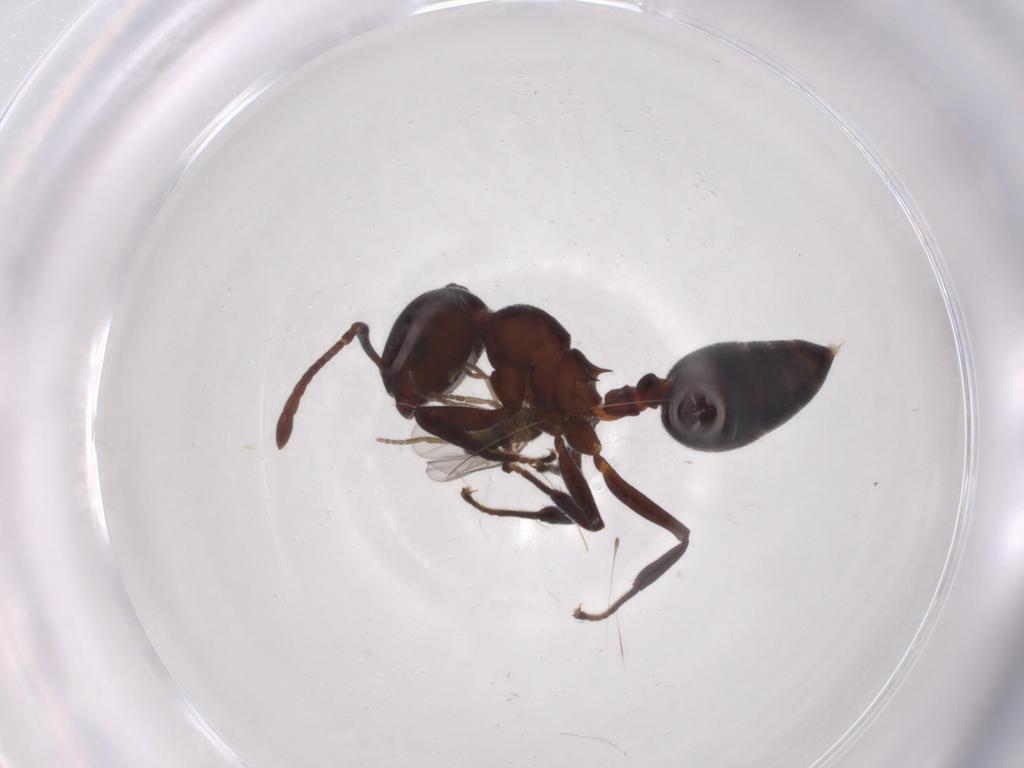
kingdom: Animalia
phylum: Arthropoda
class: Insecta
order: Hymenoptera
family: Formicidae
